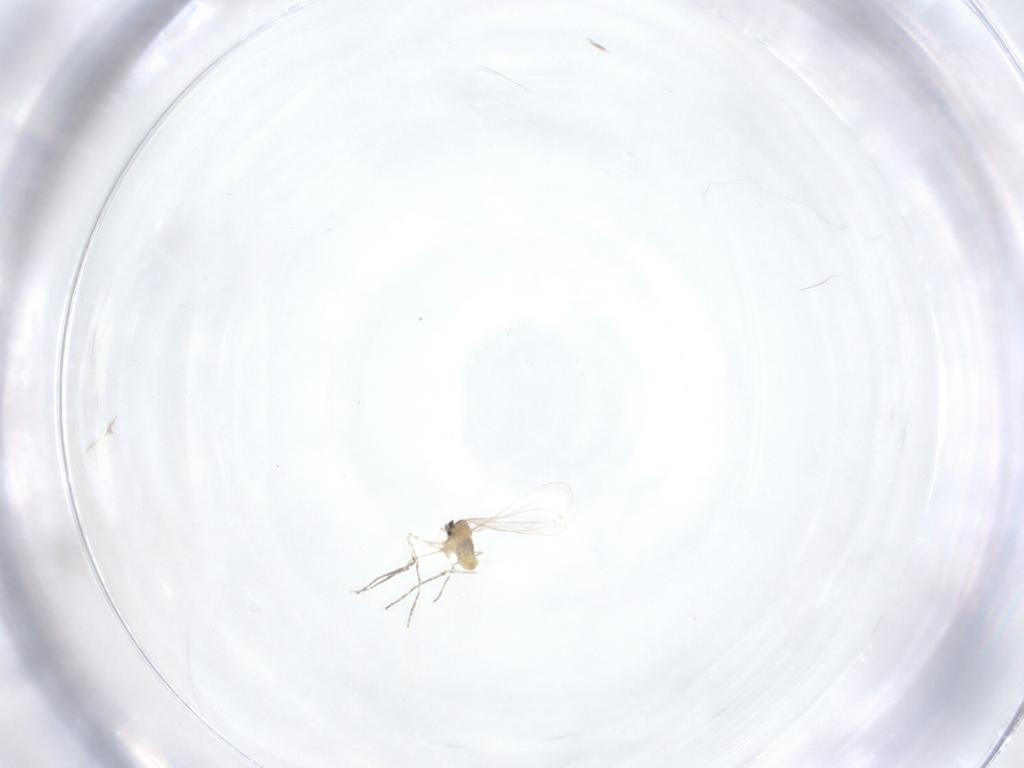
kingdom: Animalia
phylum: Arthropoda
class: Insecta
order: Diptera
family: Cecidomyiidae
